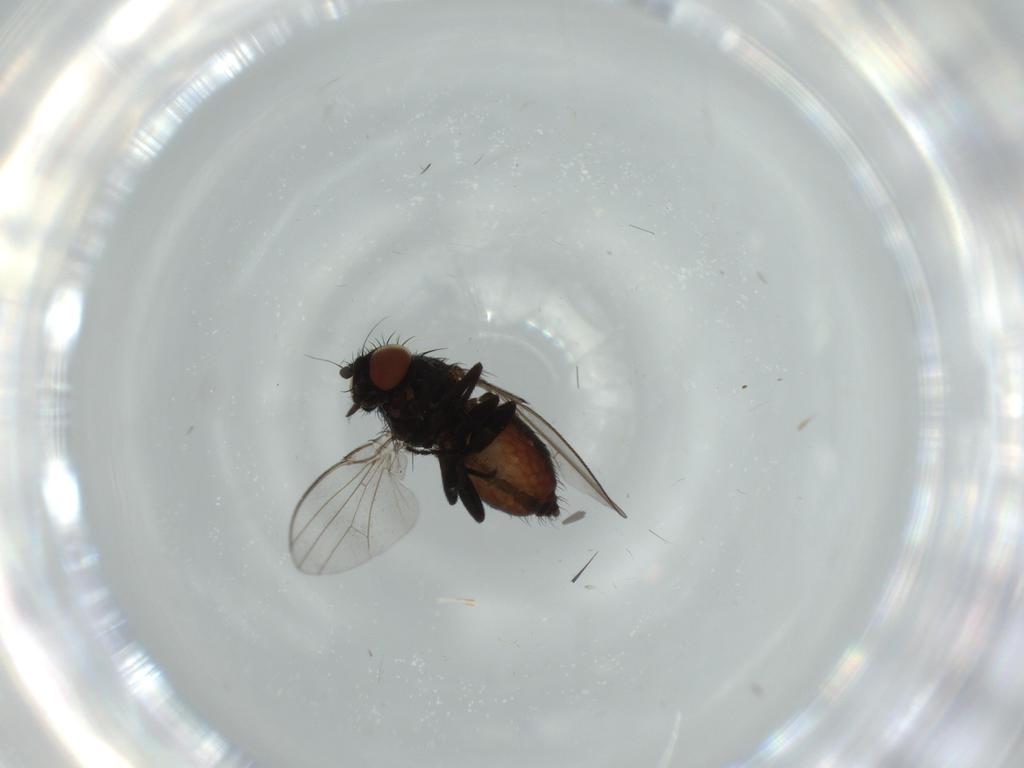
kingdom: Animalia
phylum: Arthropoda
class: Insecta
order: Diptera
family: Milichiidae
